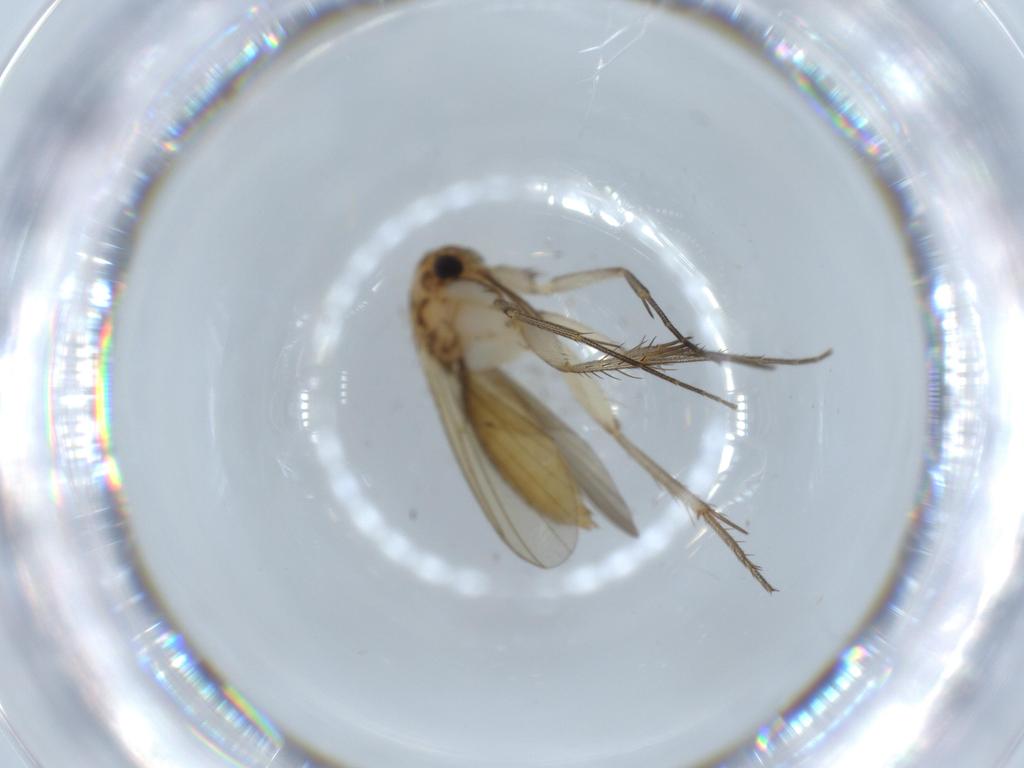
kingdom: Animalia
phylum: Arthropoda
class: Insecta
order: Diptera
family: Mycetophilidae
